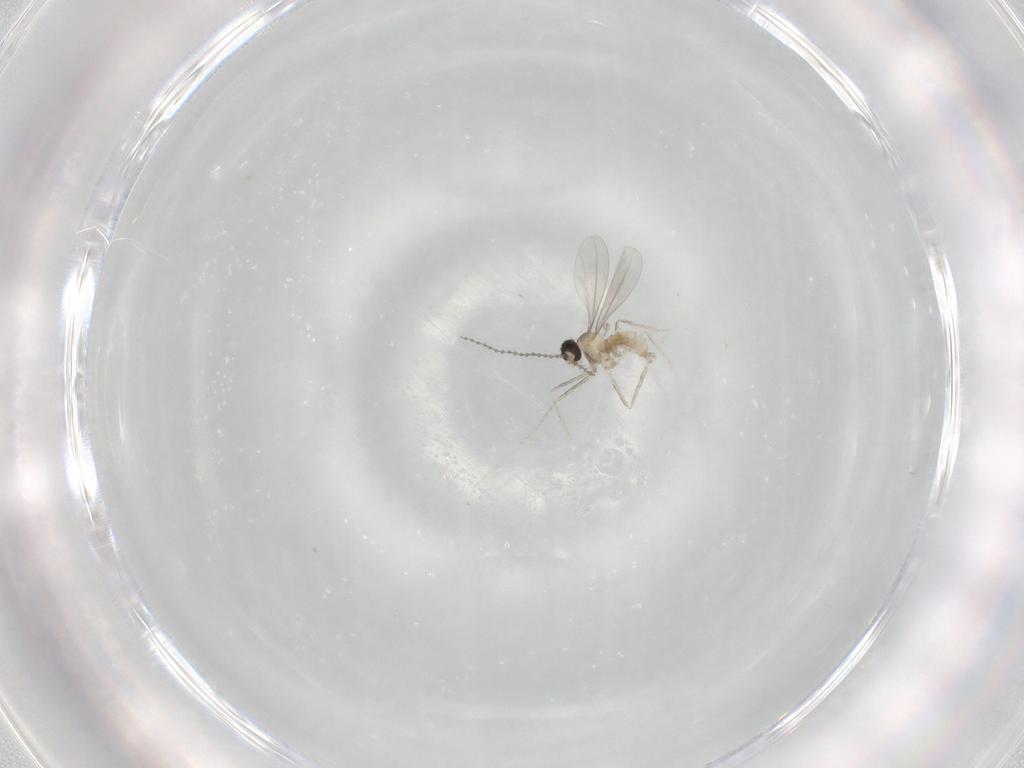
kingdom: Animalia
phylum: Arthropoda
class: Insecta
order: Diptera
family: Cecidomyiidae
